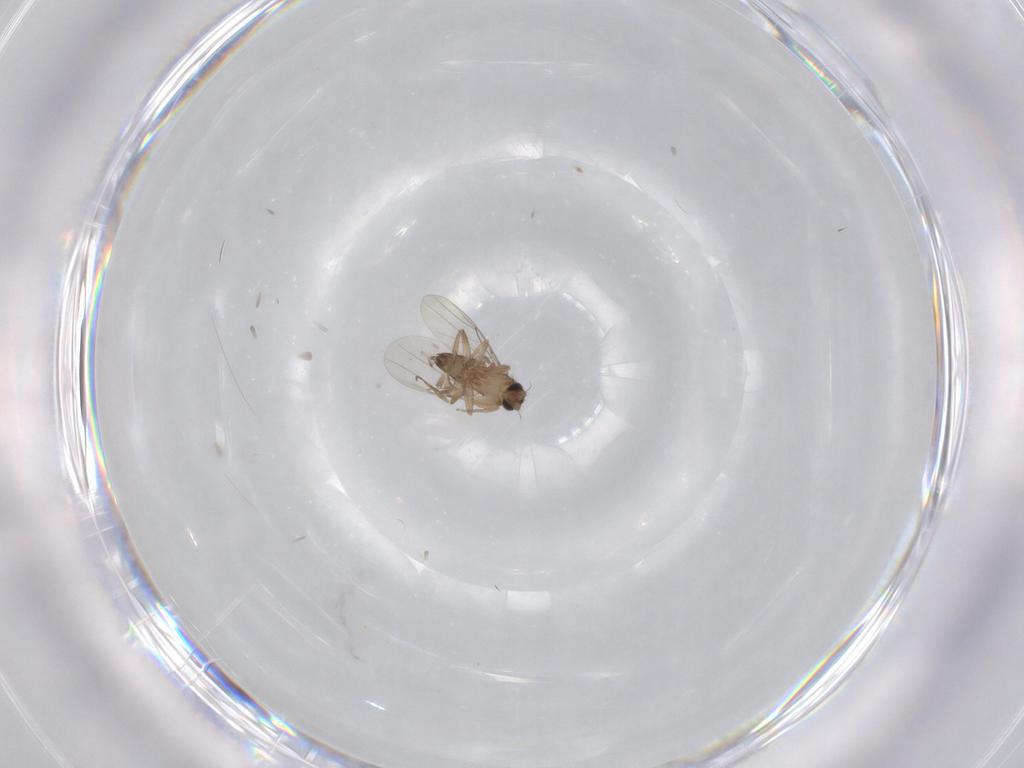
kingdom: Animalia
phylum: Arthropoda
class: Insecta
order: Diptera
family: Phoridae
